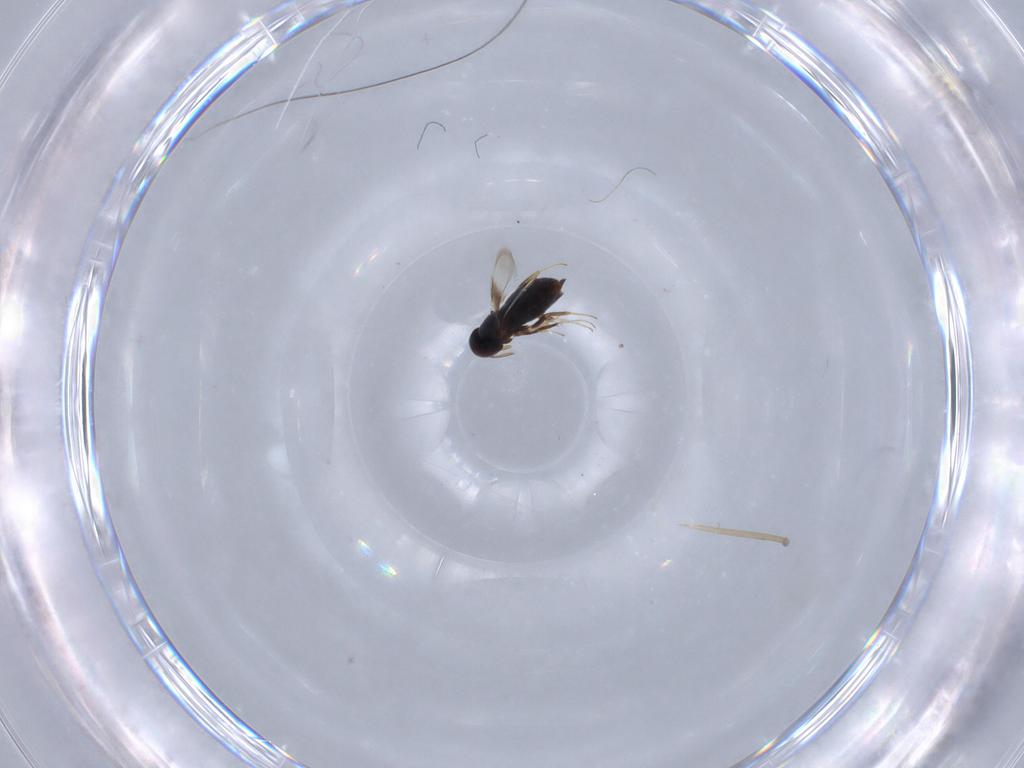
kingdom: Animalia
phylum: Arthropoda
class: Insecta
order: Hymenoptera
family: Signiphoridae
